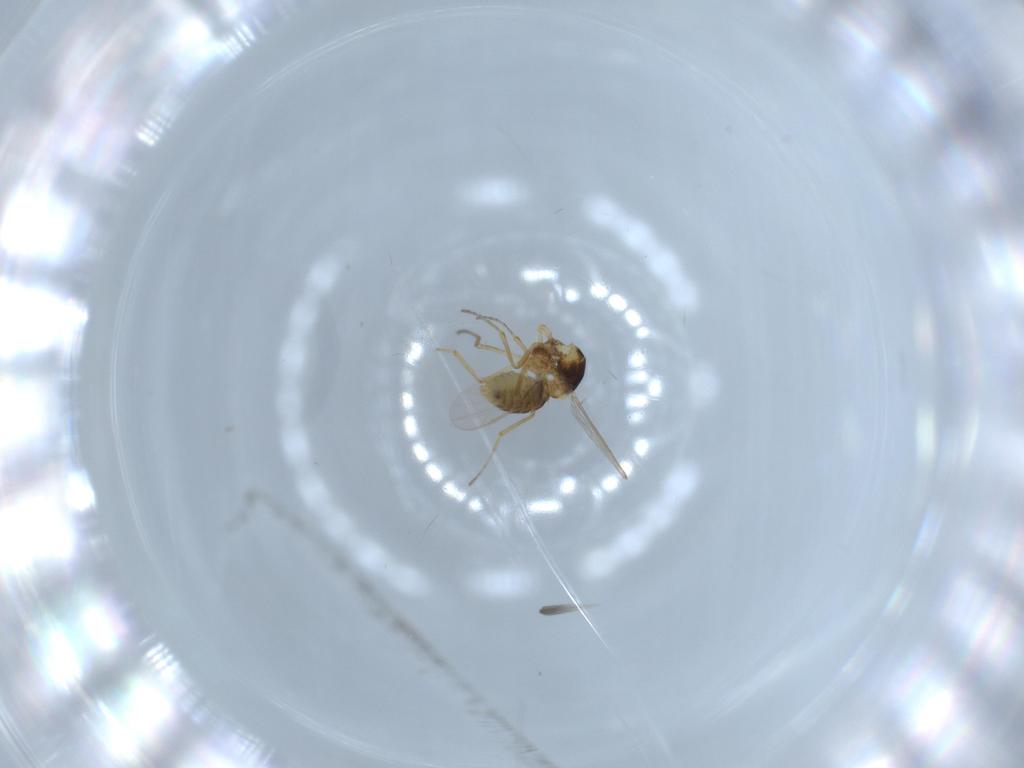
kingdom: Animalia
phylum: Arthropoda
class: Insecta
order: Diptera
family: Ceratopogonidae
